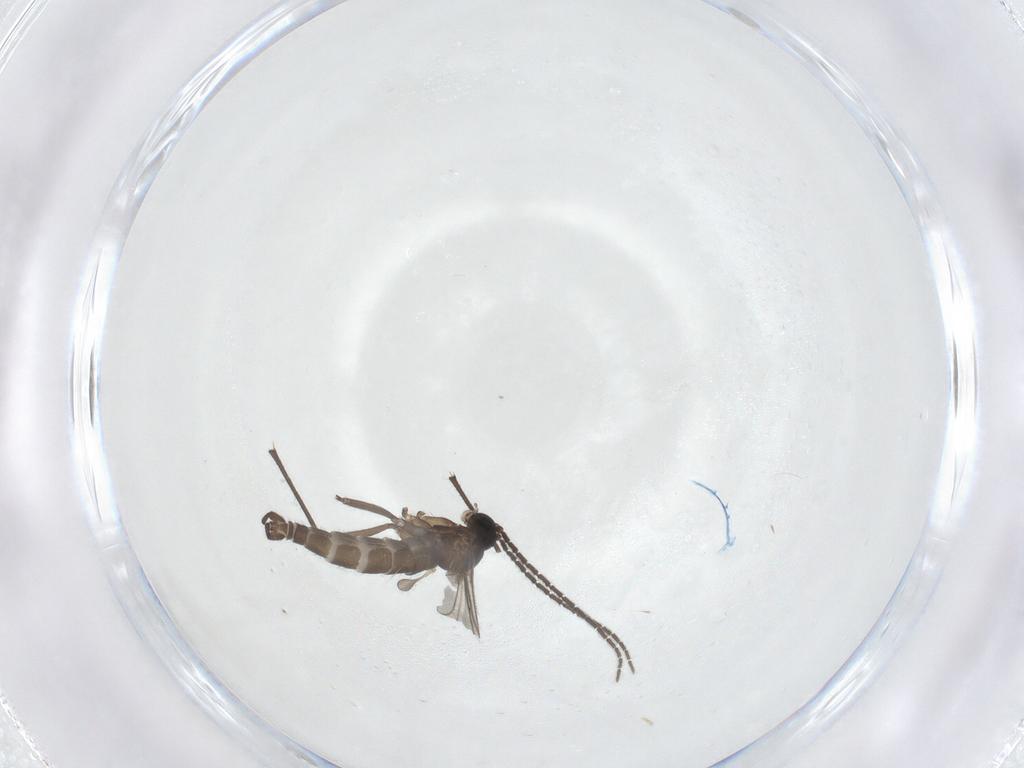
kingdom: Animalia
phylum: Arthropoda
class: Insecta
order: Diptera
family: Sciaridae
